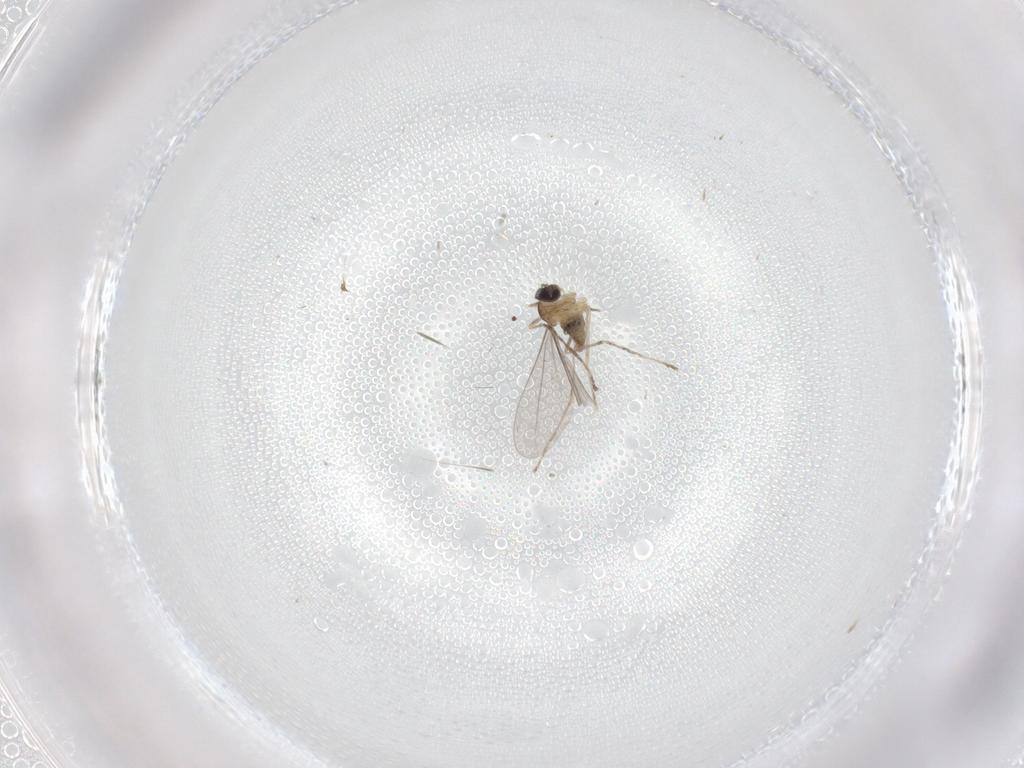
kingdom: Animalia
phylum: Arthropoda
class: Insecta
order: Diptera
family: Cecidomyiidae
